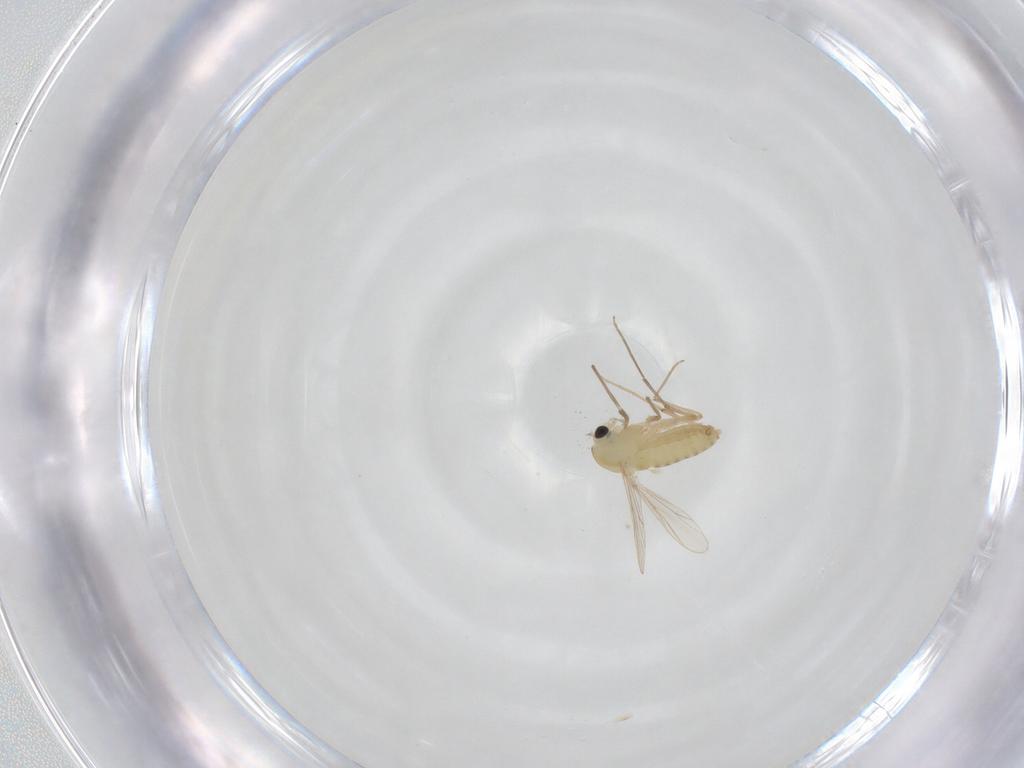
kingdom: Animalia
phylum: Arthropoda
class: Insecta
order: Diptera
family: Chironomidae
